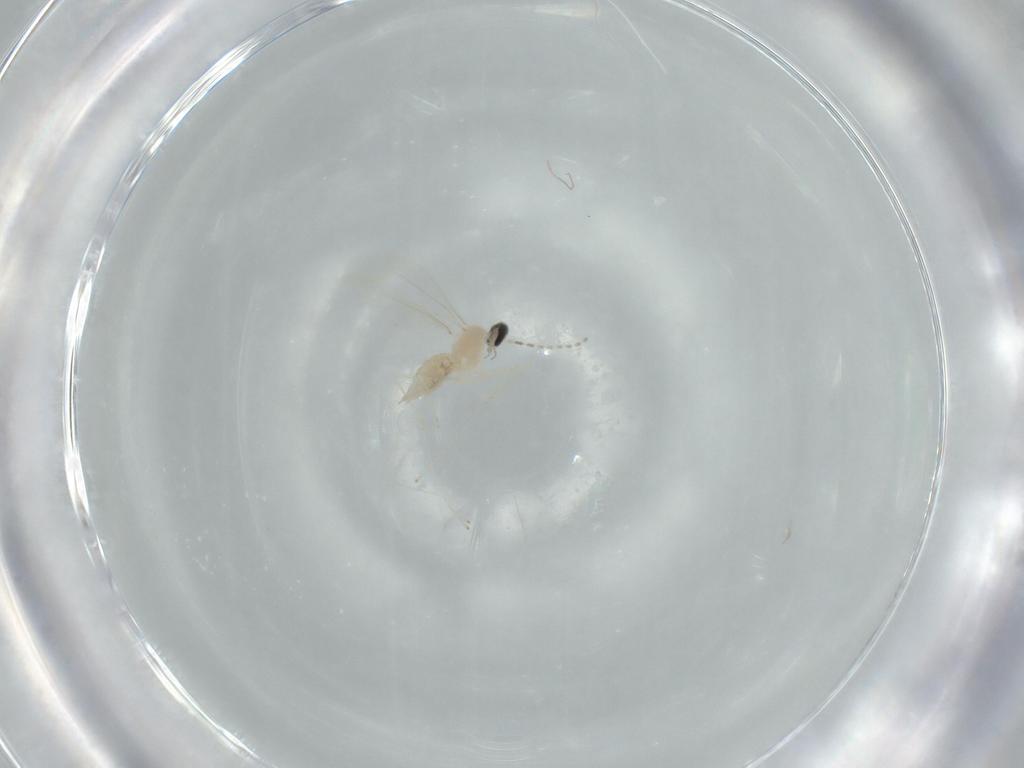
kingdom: Animalia
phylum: Arthropoda
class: Insecta
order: Diptera
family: Cecidomyiidae
